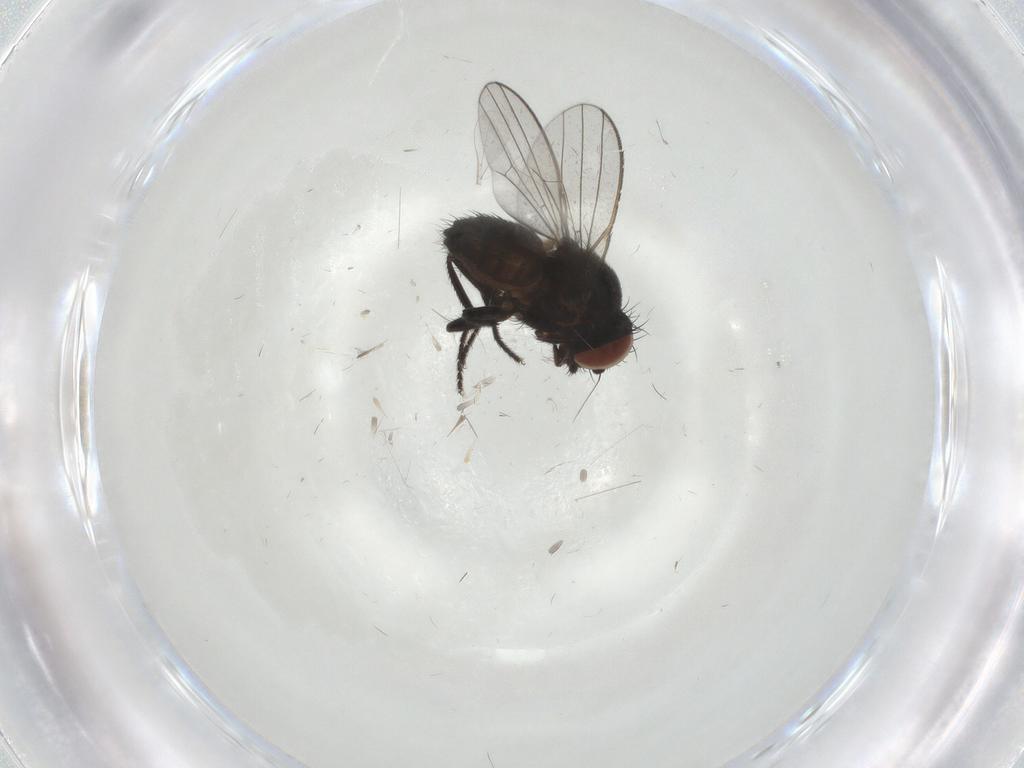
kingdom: Animalia
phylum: Arthropoda
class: Insecta
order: Diptera
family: Milichiidae
